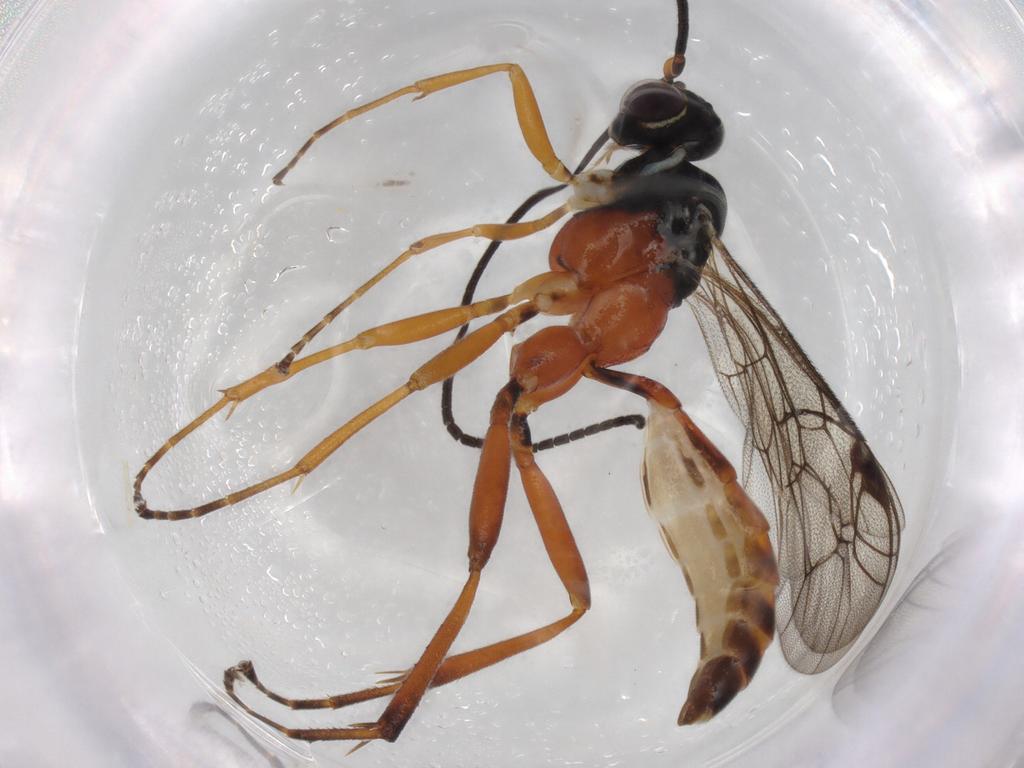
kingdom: Animalia
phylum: Arthropoda
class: Insecta
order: Hymenoptera
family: Ichneumonidae
